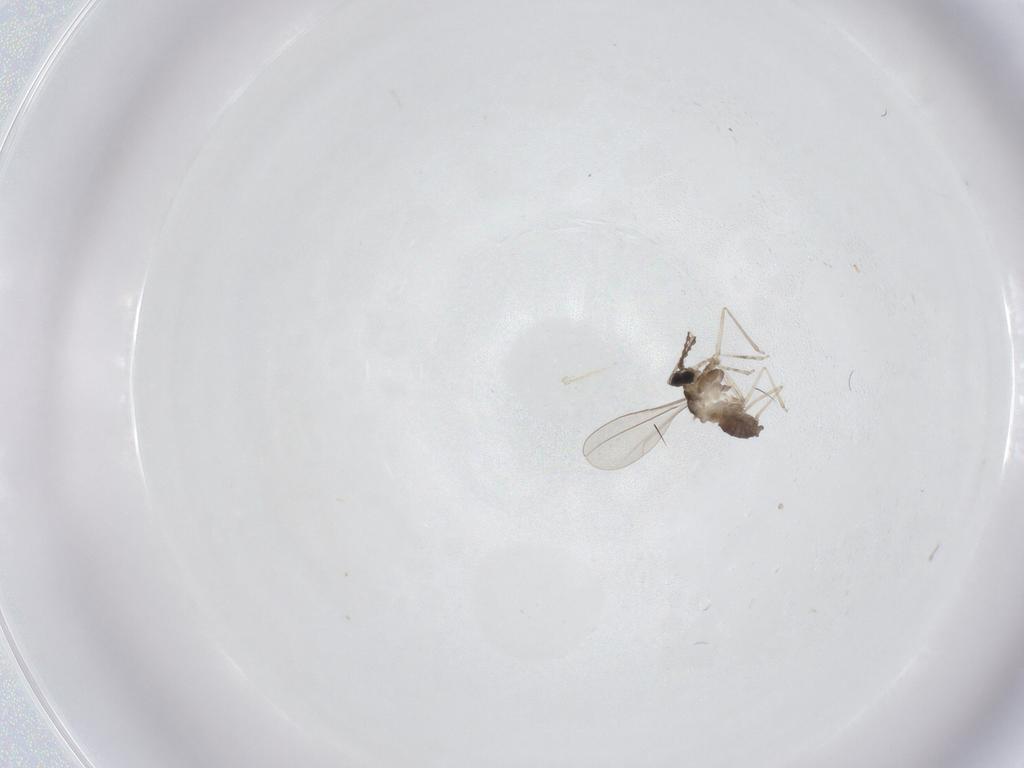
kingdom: Animalia
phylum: Arthropoda
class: Insecta
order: Diptera
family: Cecidomyiidae
